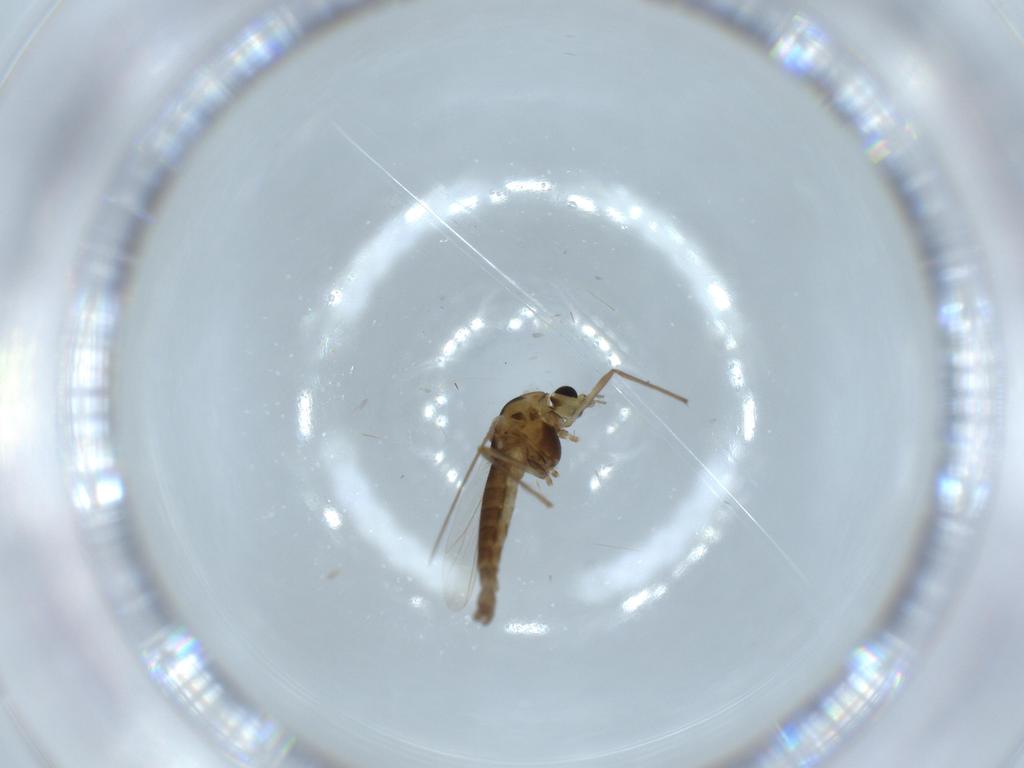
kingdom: Animalia
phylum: Arthropoda
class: Insecta
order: Diptera
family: Chironomidae
